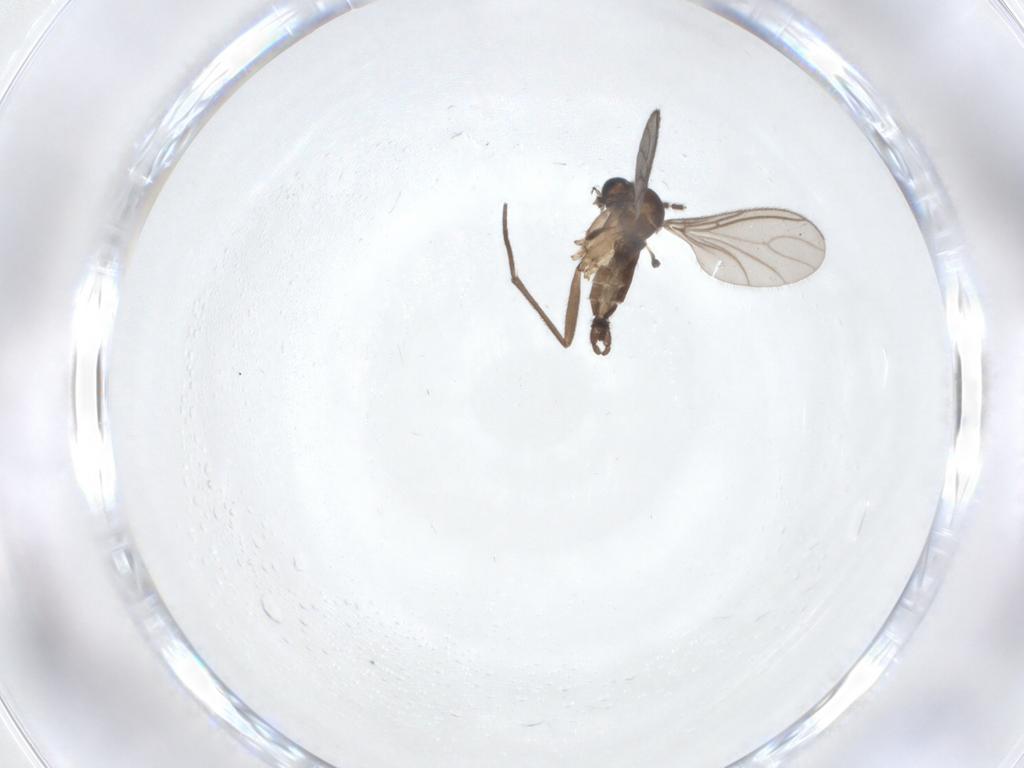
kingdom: Animalia
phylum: Arthropoda
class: Insecta
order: Diptera
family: Sciaridae
